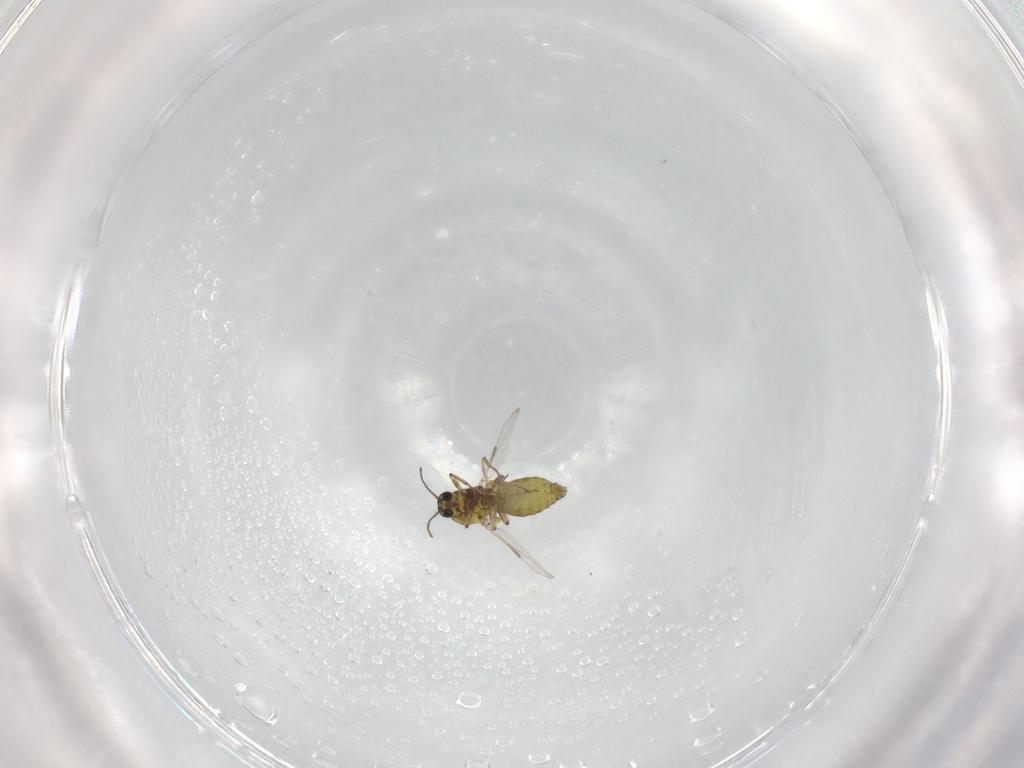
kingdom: Animalia
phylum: Arthropoda
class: Insecta
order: Diptera
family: Ceratopogonidae
